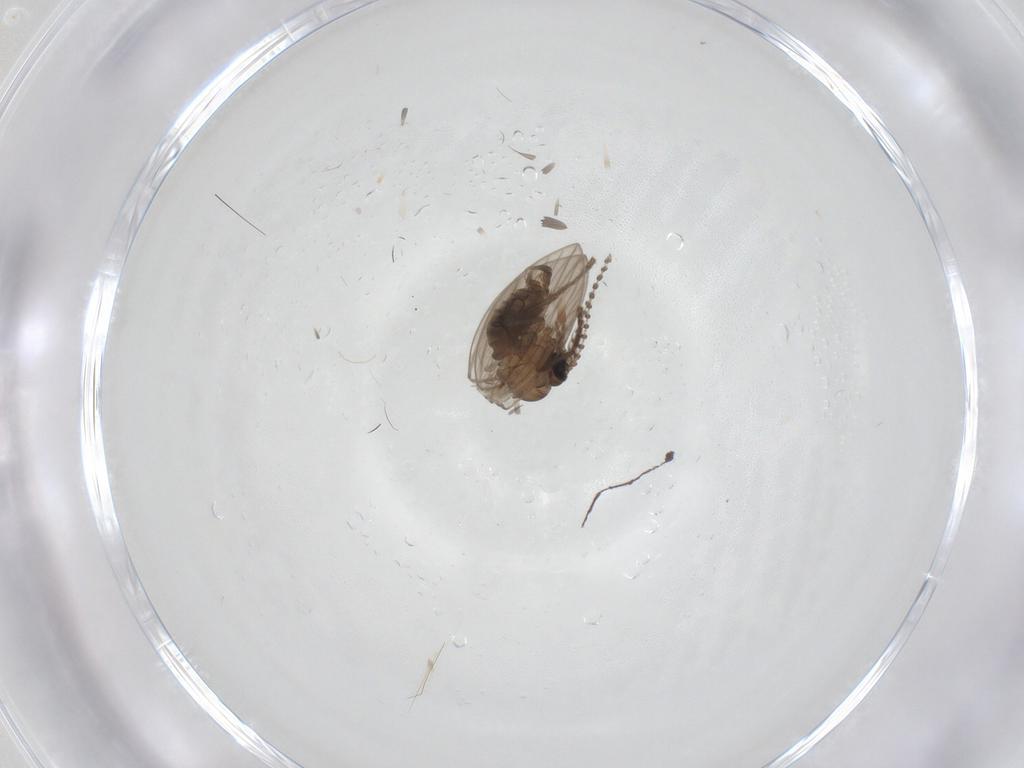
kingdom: Animalia
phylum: Arthropoda
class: Insecta
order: Diptera
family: Psychodidae
